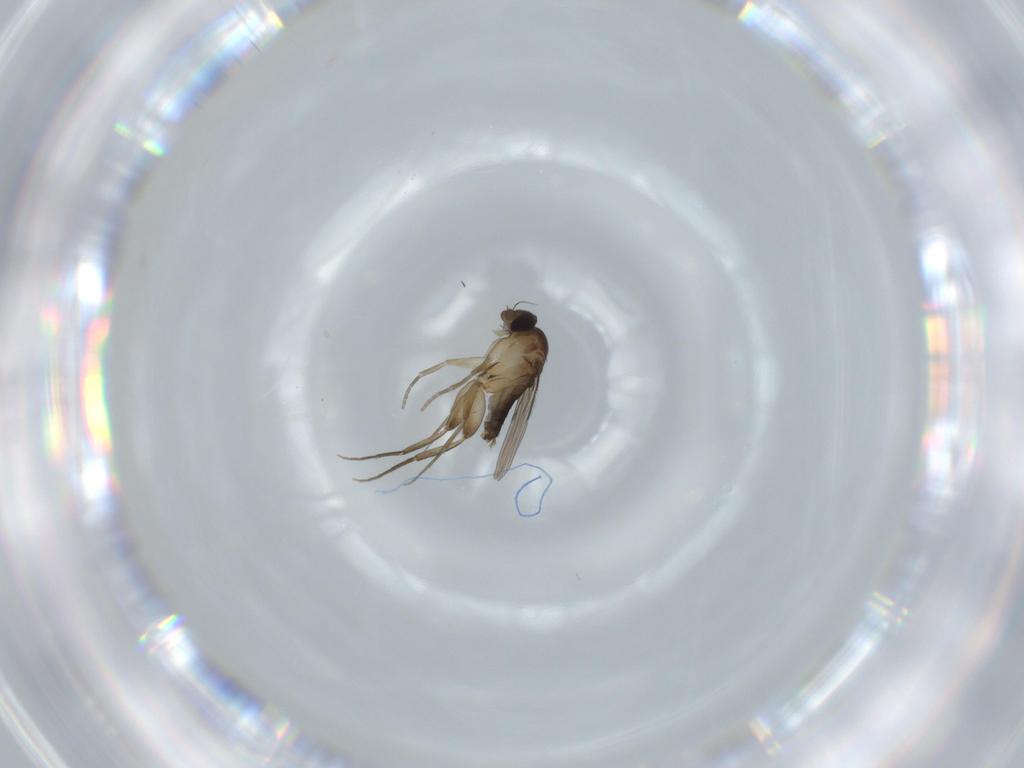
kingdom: Animalia
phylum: Arthropoda
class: Insecta
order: Diptera
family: Phoridae
